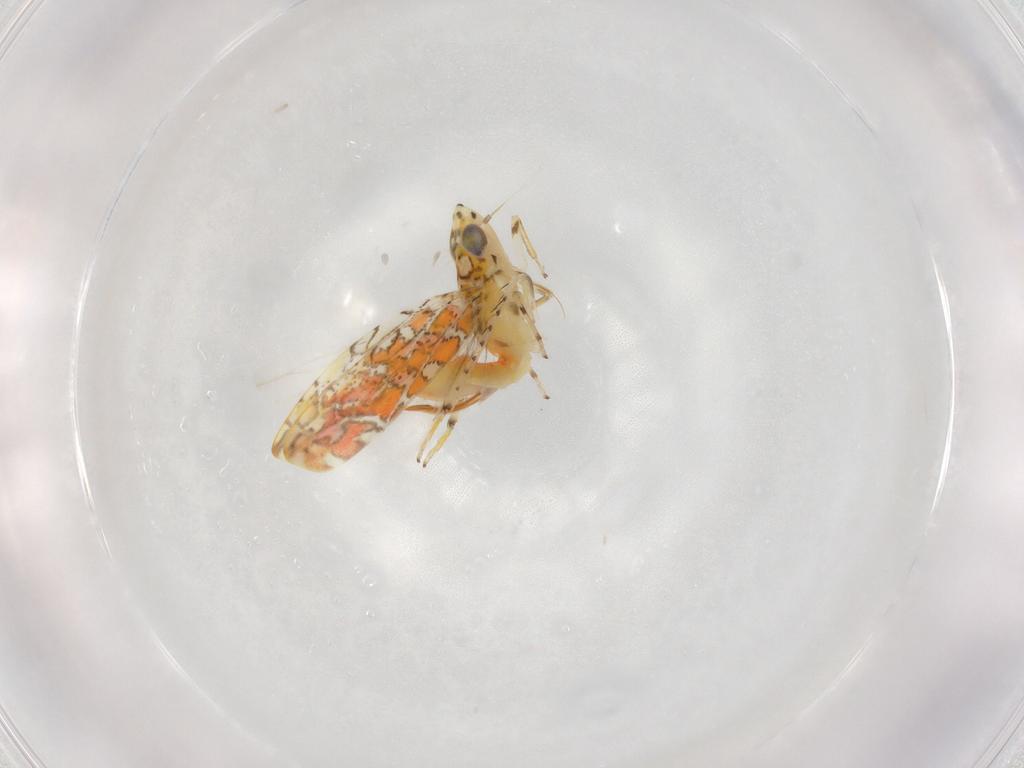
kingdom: Animalia
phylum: Arthropoda
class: Insecta
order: Hemiptera
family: Cicadellidae
